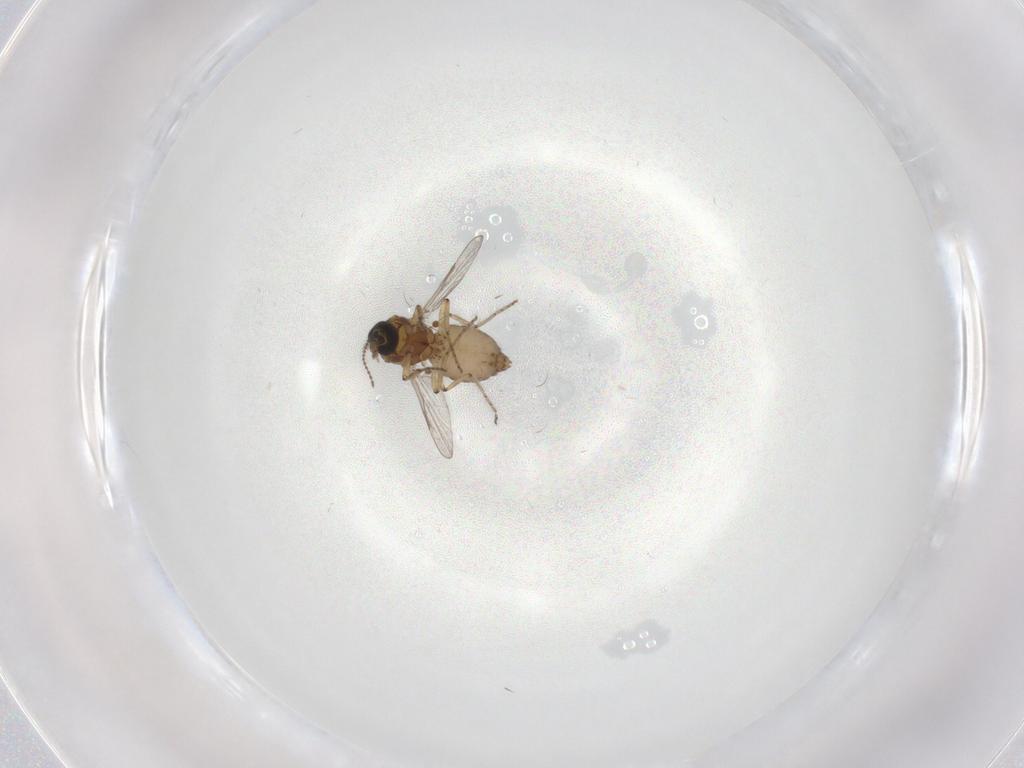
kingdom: Animalia
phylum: Arthropoda
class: Insecta
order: Diptera
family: Ceratopogonidae
